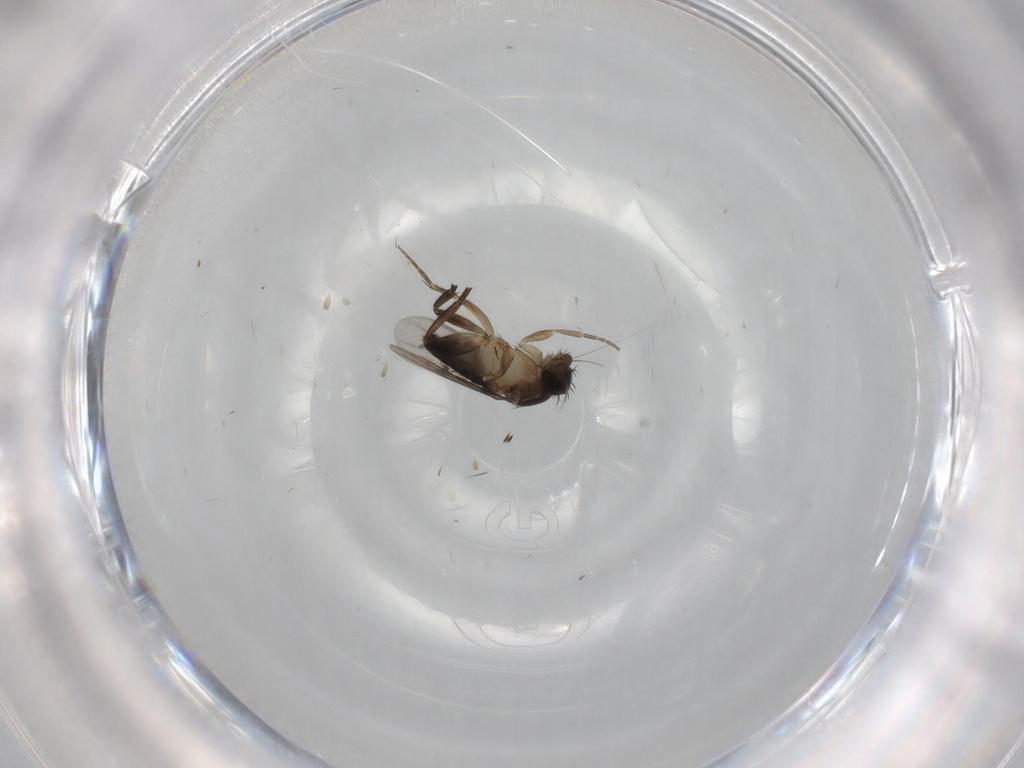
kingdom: Animalia
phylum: Arthropoda
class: Insecta
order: Diptera
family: Phoridae
